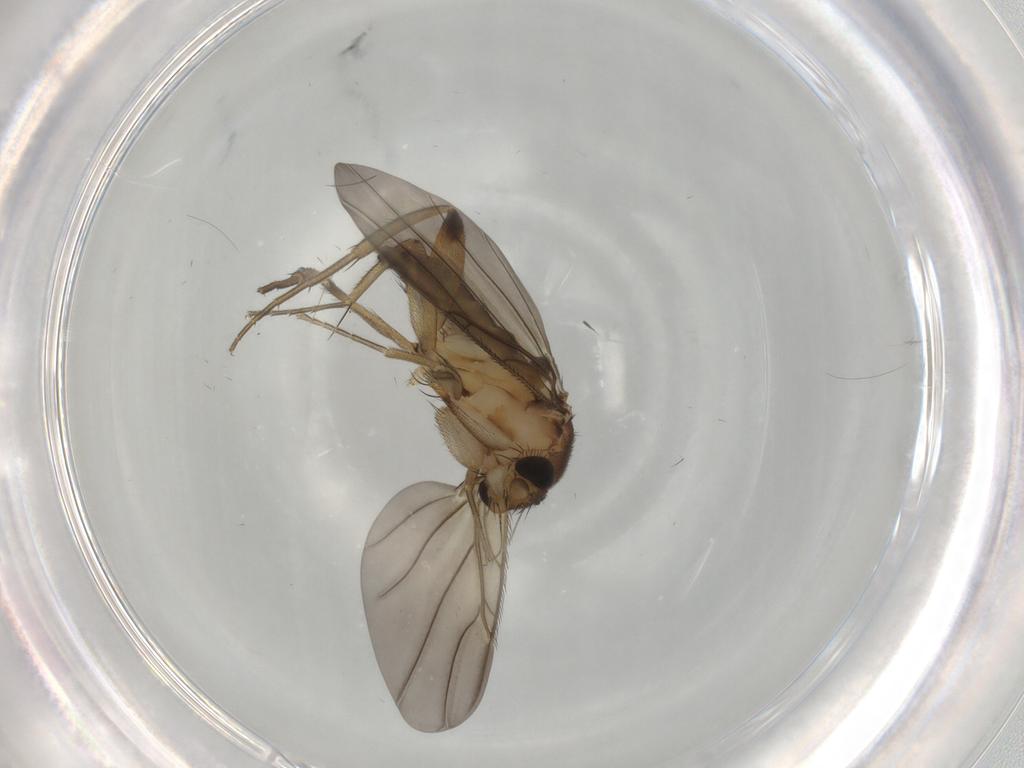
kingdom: Animalia
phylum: Arthropoda
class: Insecta
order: Diptera
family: Phoridae
